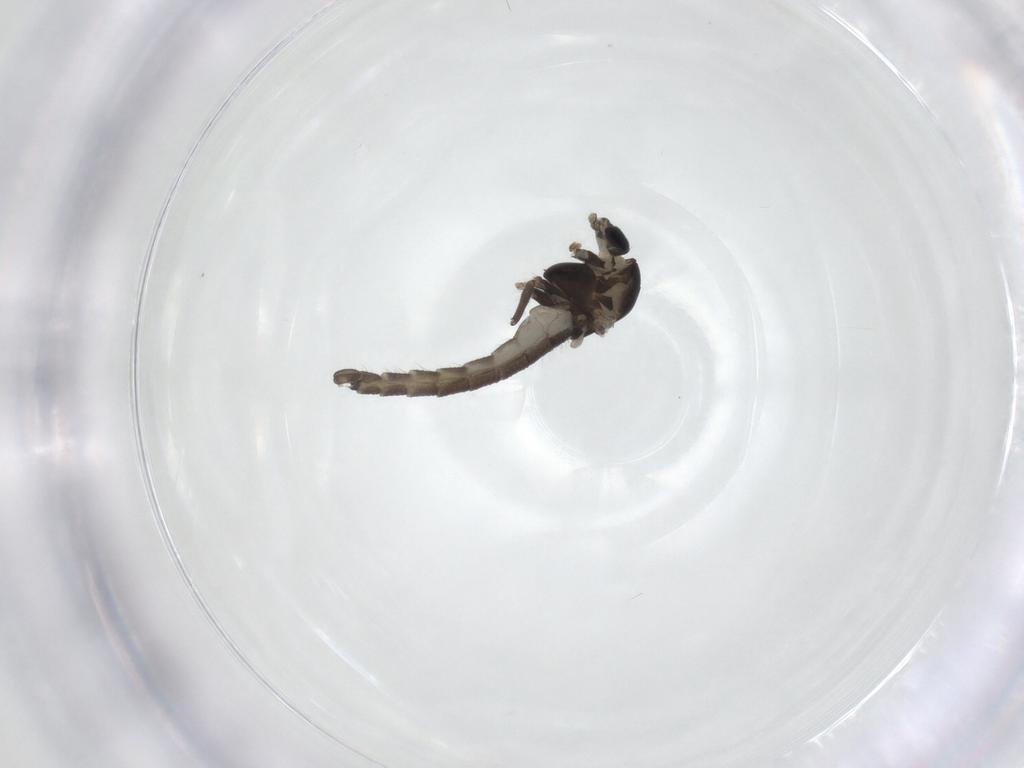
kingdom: Animalia
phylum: Arthropoda
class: Insecta
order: Diptera
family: Chironomidae
